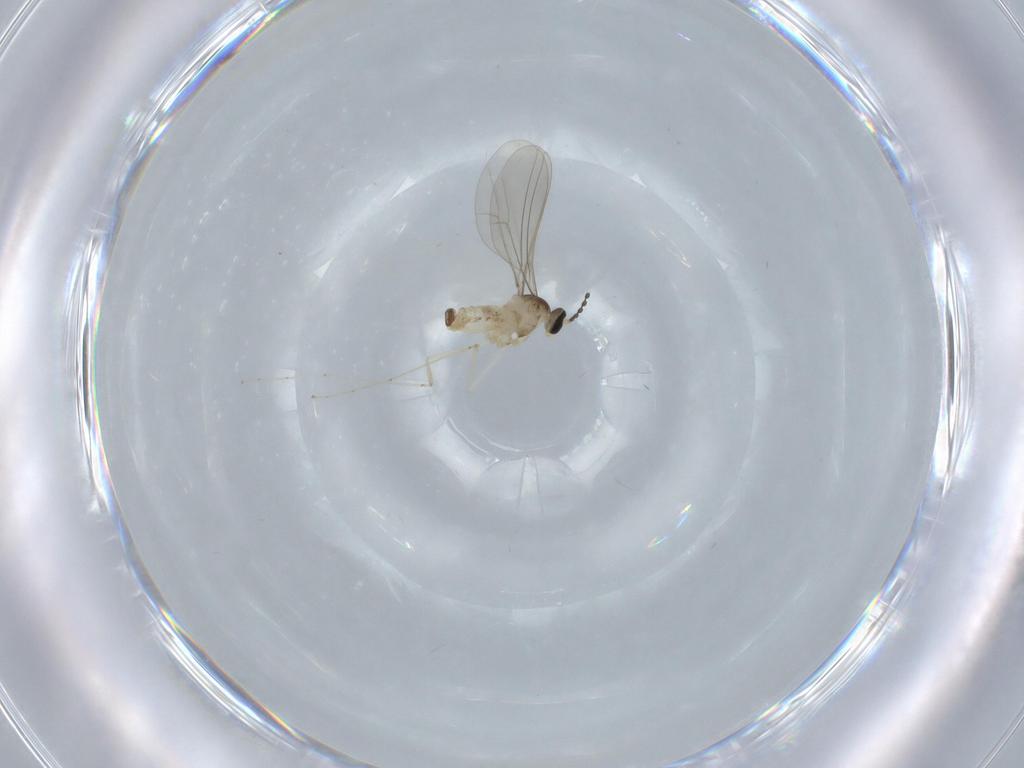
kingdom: Animalia
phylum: Arthropoda
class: Insecta
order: Diptera
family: Cecidomyiidae
